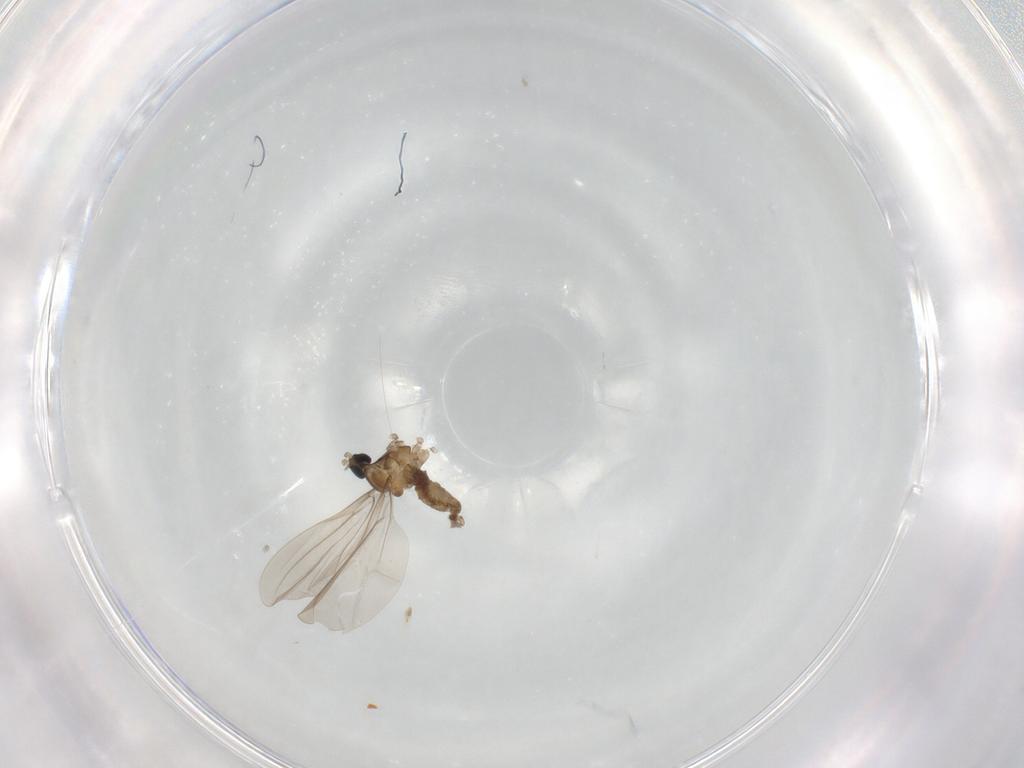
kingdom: Animalia
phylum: Arthropoda
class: Insecta
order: Diptera
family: Cecidomyiidae
